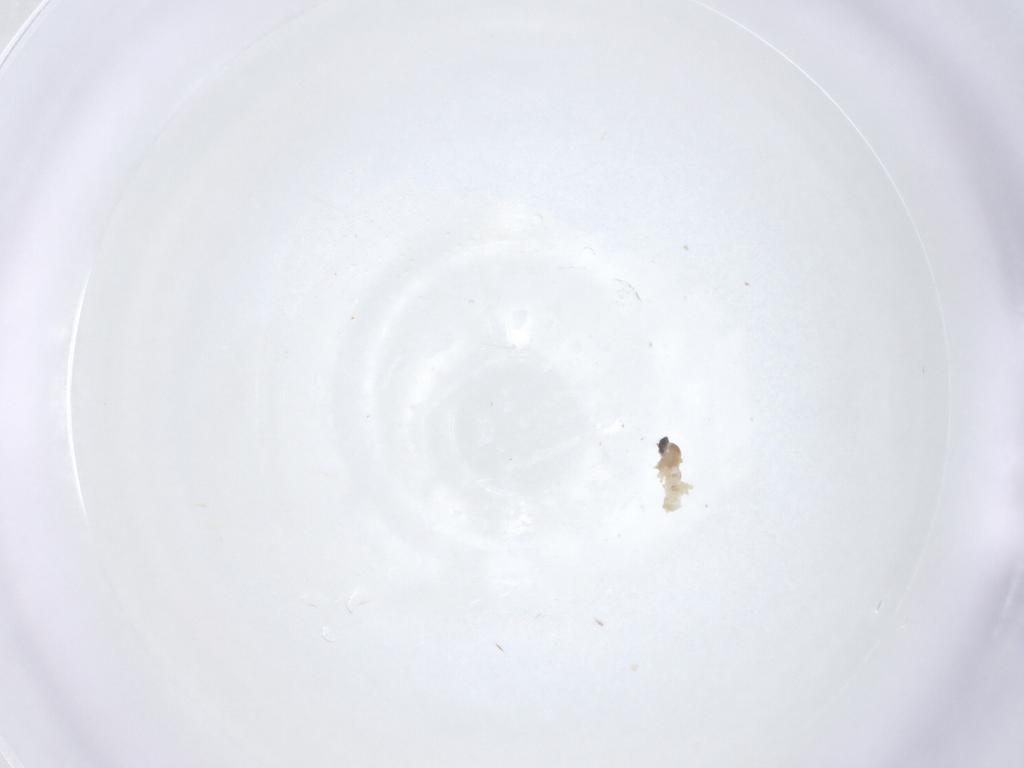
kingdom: Animalia
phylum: Arthropoda
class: Insecta
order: Diptera
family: Cecidomyiidae
